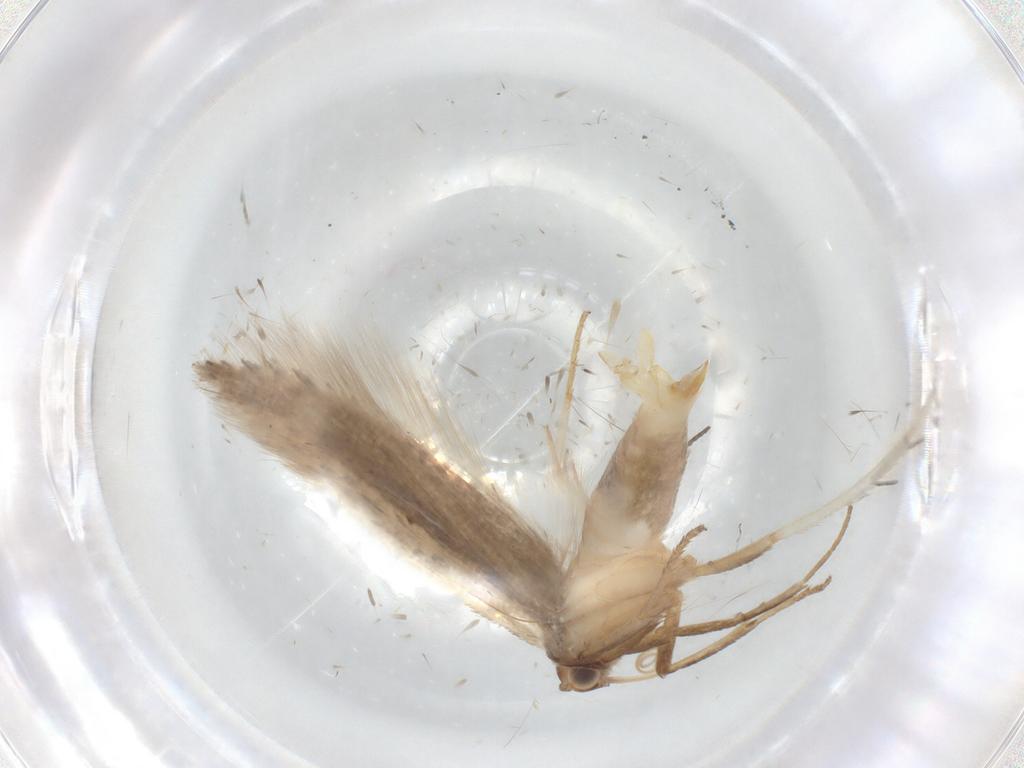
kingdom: Animalia
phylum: Arthropoda
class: Insecta
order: Lepidoptera
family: Gelechiidae
